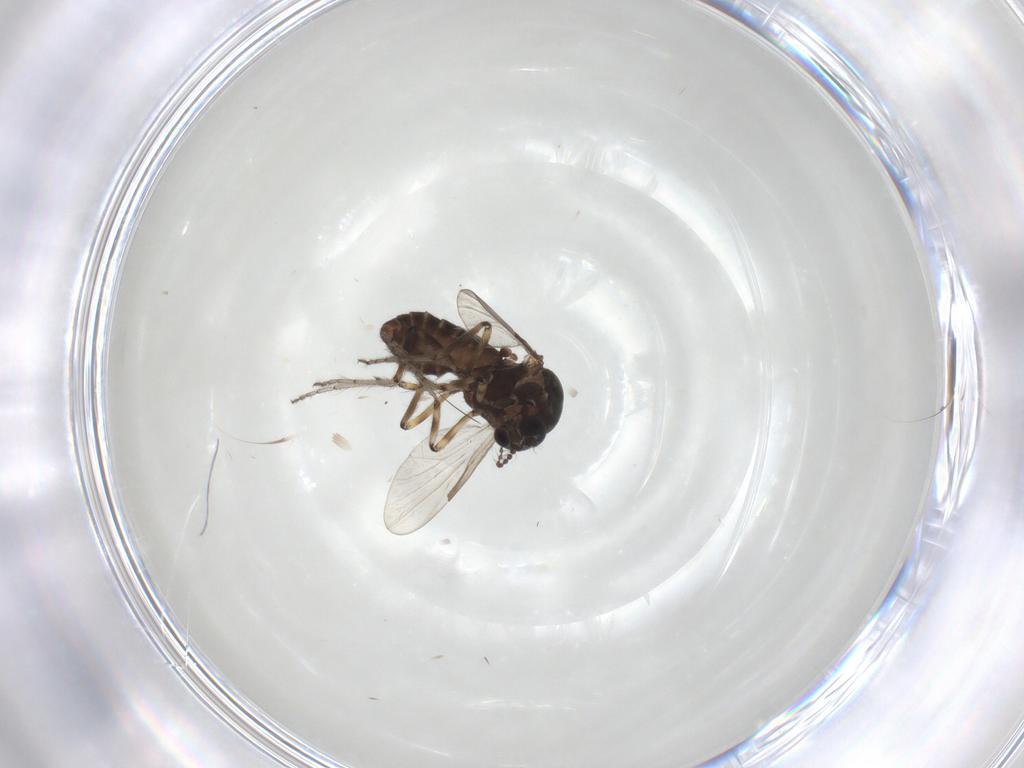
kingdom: Animalia
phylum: Arthropoda
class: Insecta
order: Diptera
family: Ceratopogonidae
